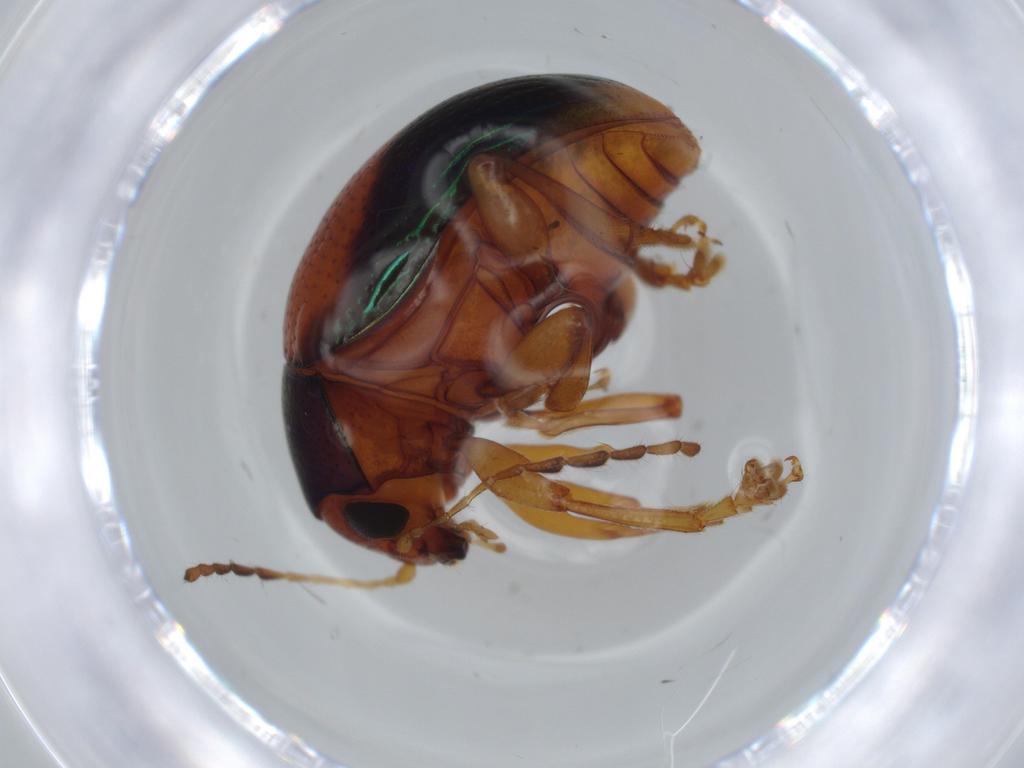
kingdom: Animalia
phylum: Arthropoda
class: Insecta
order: Coleoptera
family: Chrysomelidae
